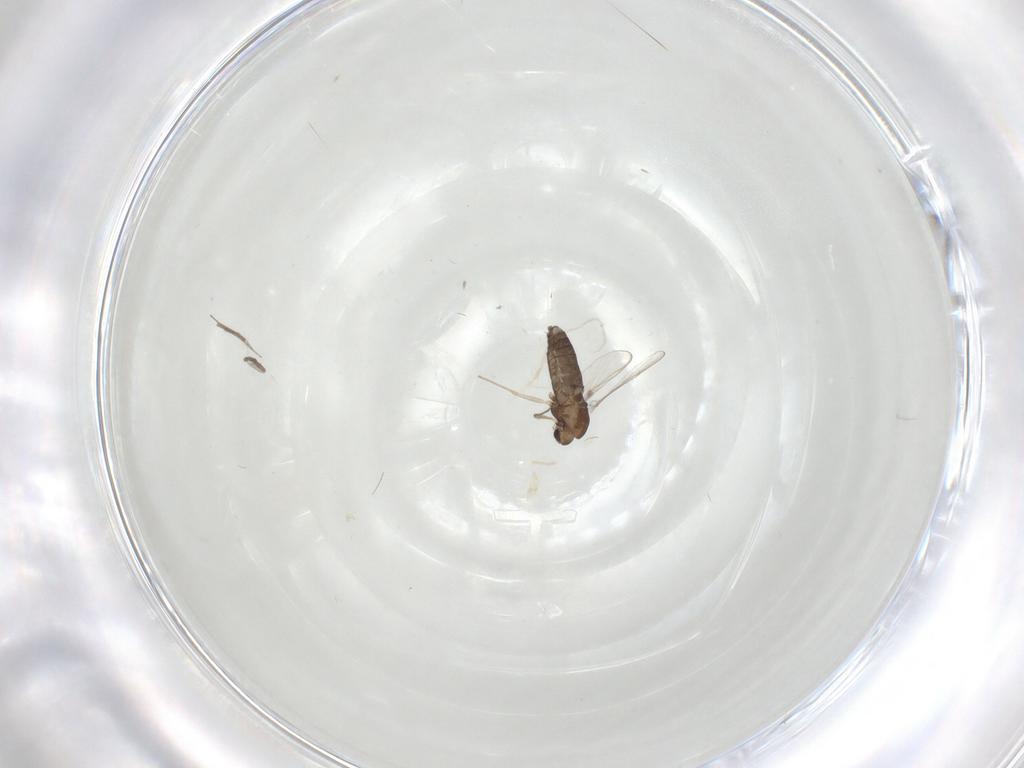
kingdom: Animalia
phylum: Arthropoda
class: Insecta
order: Diptera
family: Chironomidae
